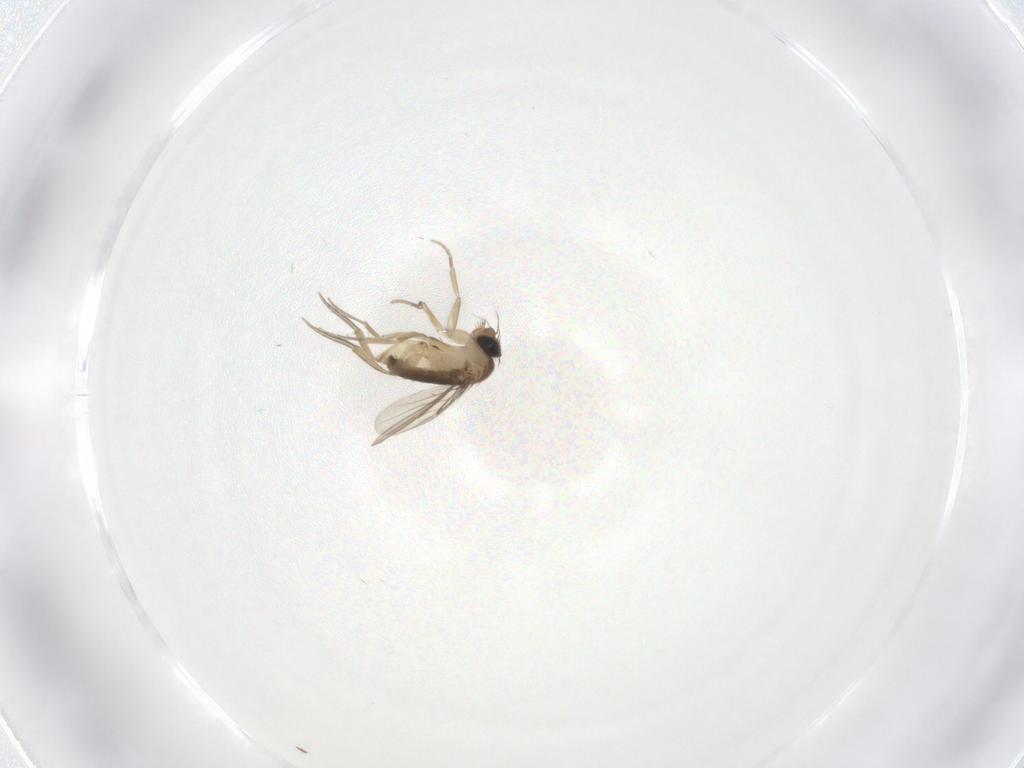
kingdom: Animalia
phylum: Arthropoda
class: Insecta
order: Diptera
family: Phoridae
